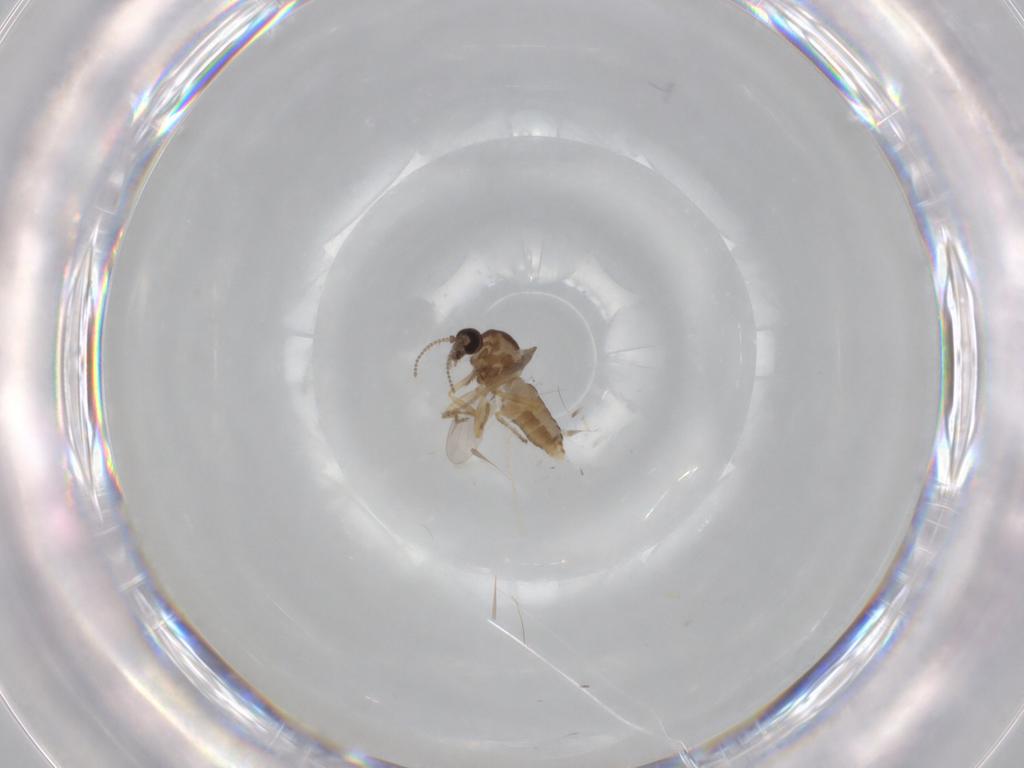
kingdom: Animalia
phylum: Arthropoda
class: Insecta
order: Diptera
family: Ceratopogonidae
